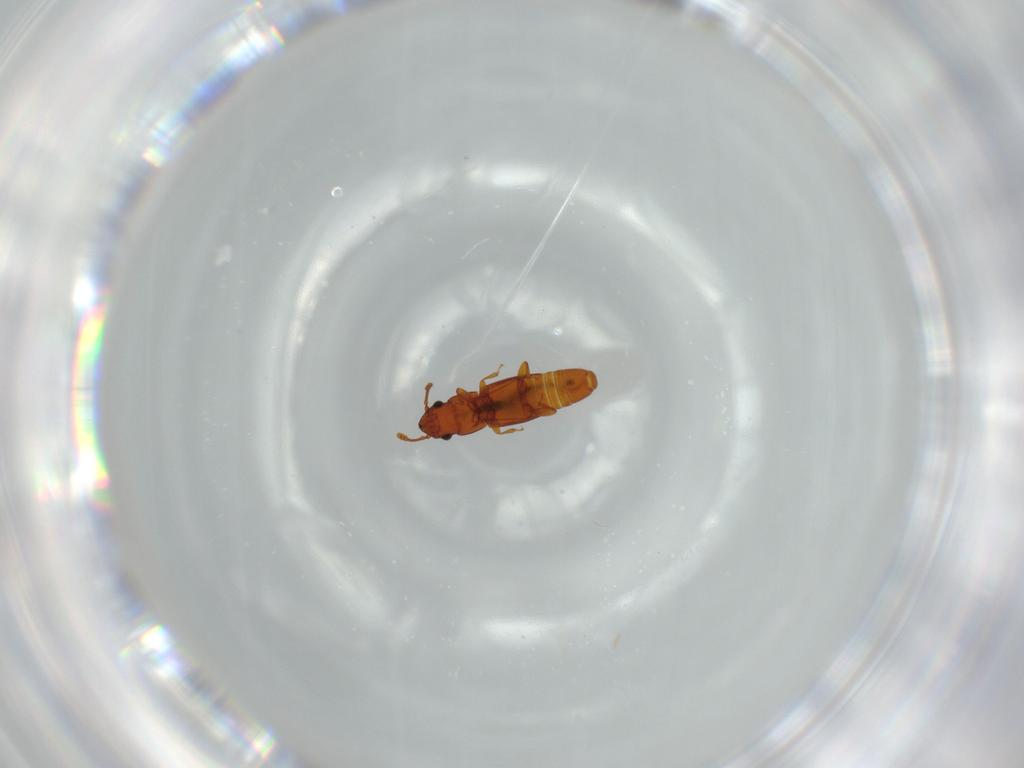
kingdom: Animalia
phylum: Arthropoda
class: Insecta
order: Coleoptera
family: Smicripidae
